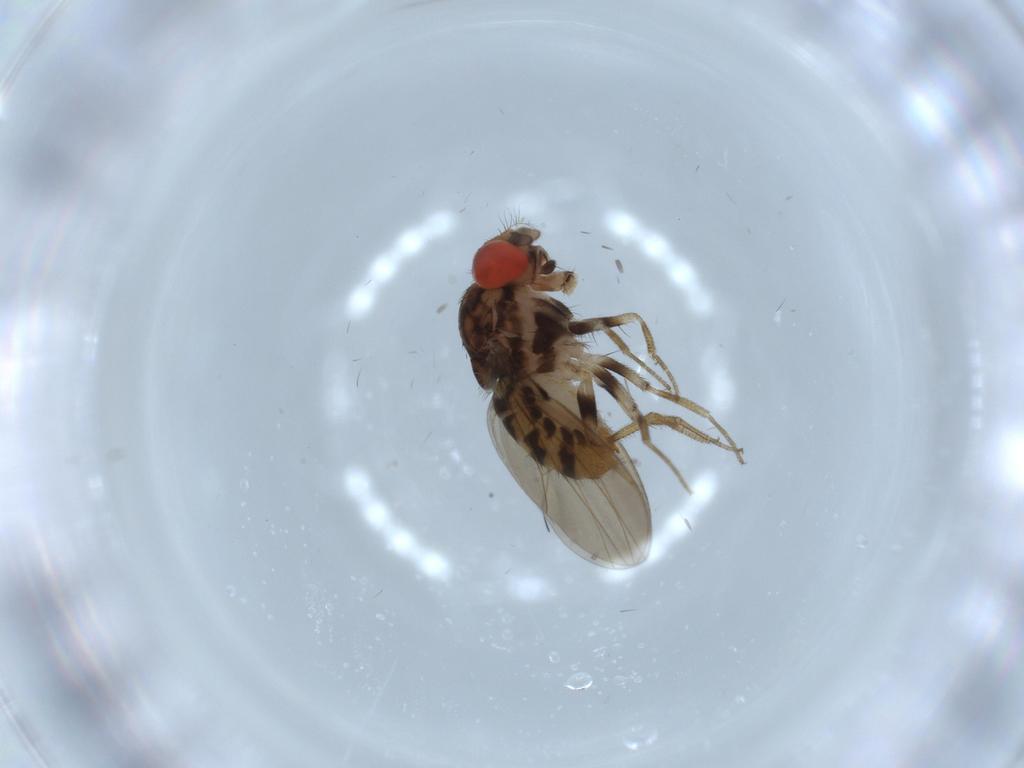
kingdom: Animalia
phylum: Arthropoda
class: Insecta
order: Diptera
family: Drosophilidae
